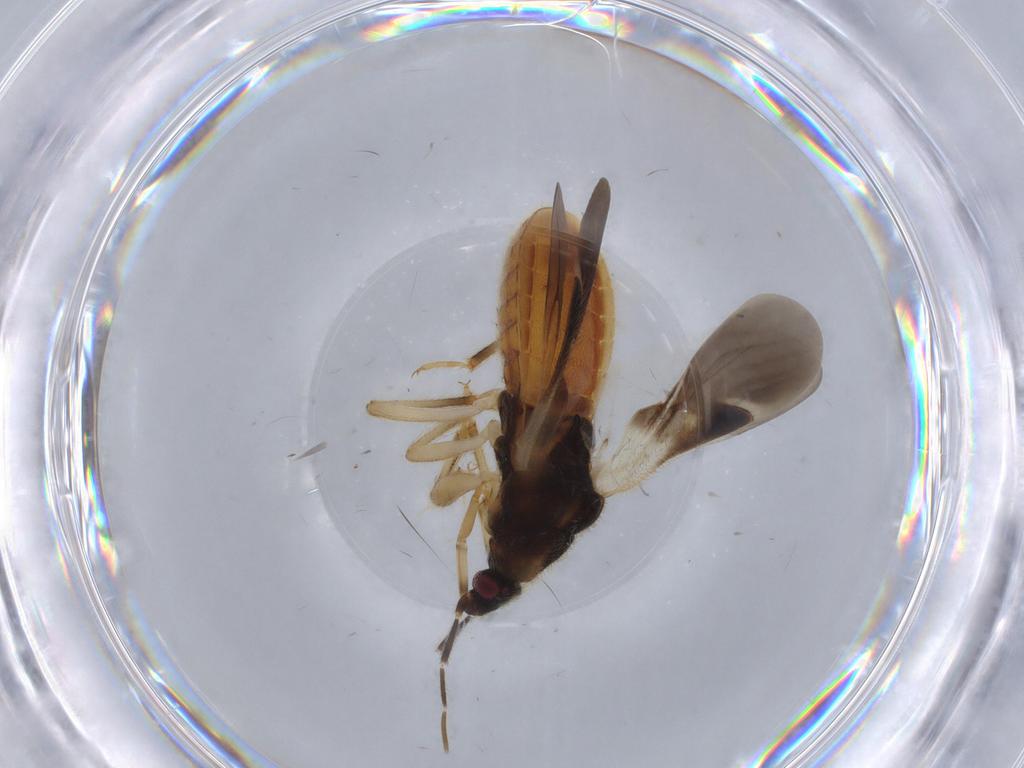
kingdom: Animalia
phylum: Arthropoda
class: Insecta
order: Hemiptera
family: Nabidae
